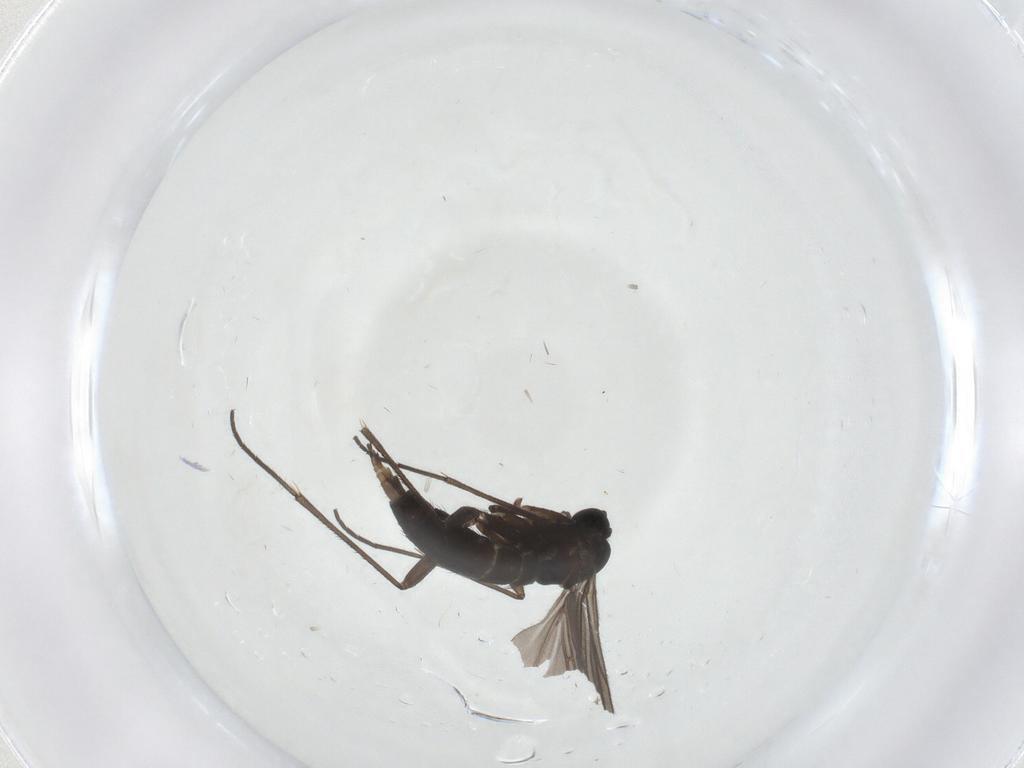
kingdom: Animalia
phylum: Arthropoda
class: Insecta
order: Diptera
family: Sciaridae
